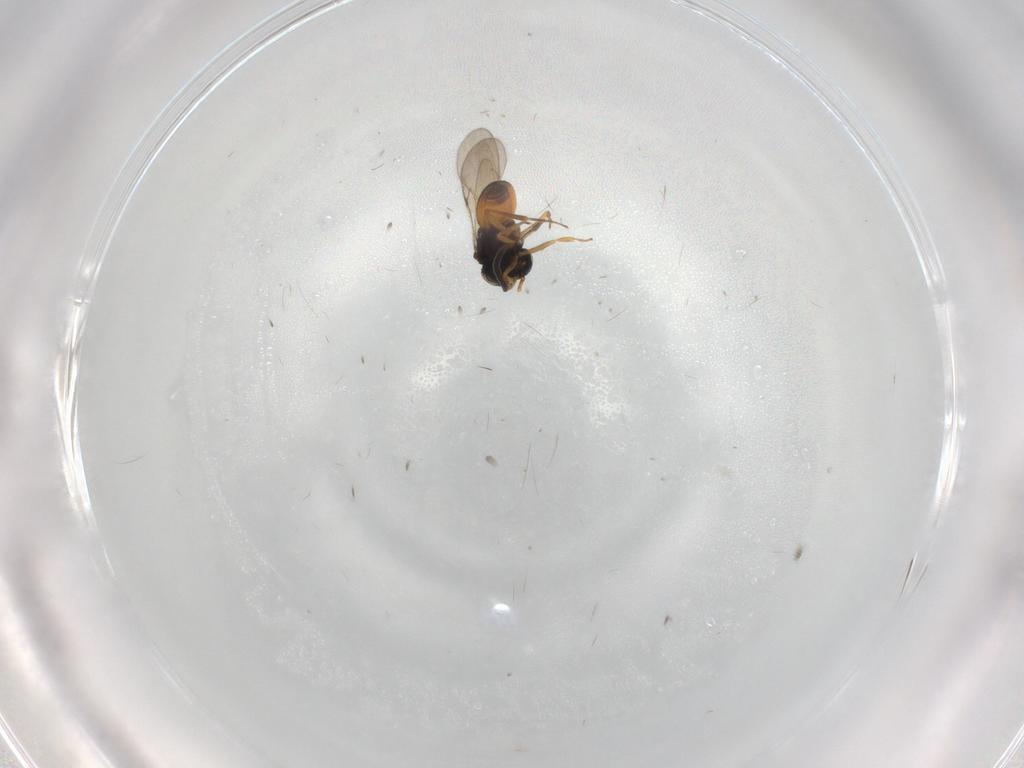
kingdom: Animalia
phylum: Arthropoda
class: Insecta
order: Hymenoptera
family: Scelionidae
